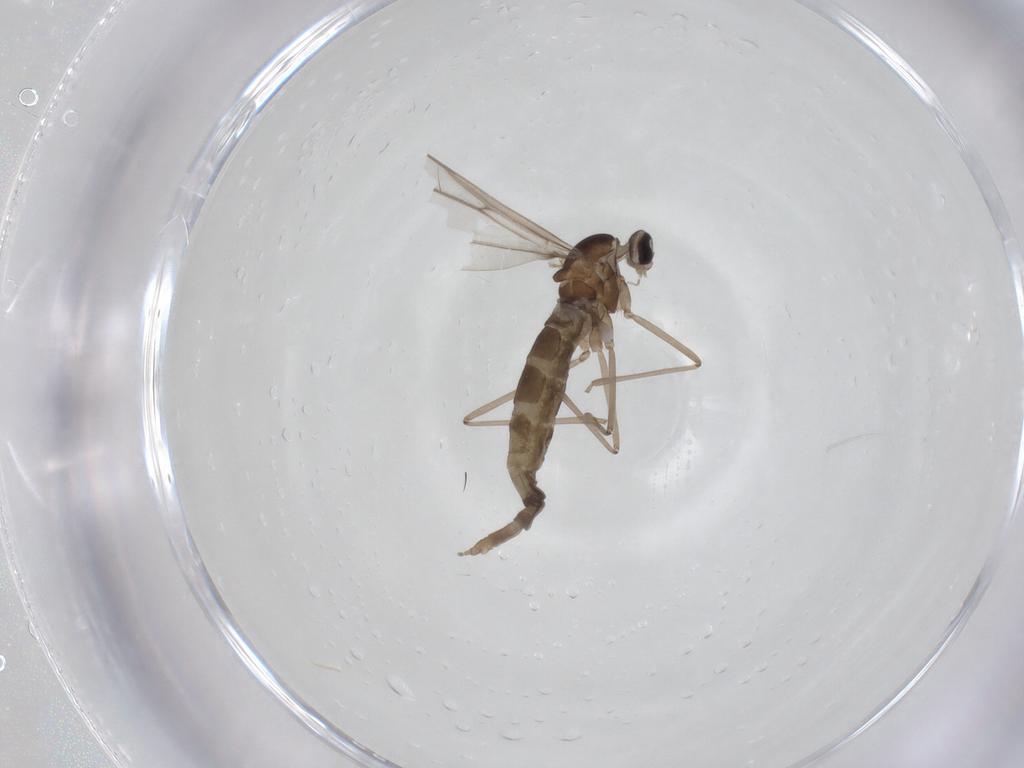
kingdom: Animalia
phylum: Arthropoda
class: Insecta
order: Diptera
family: Cecidomyiidae
